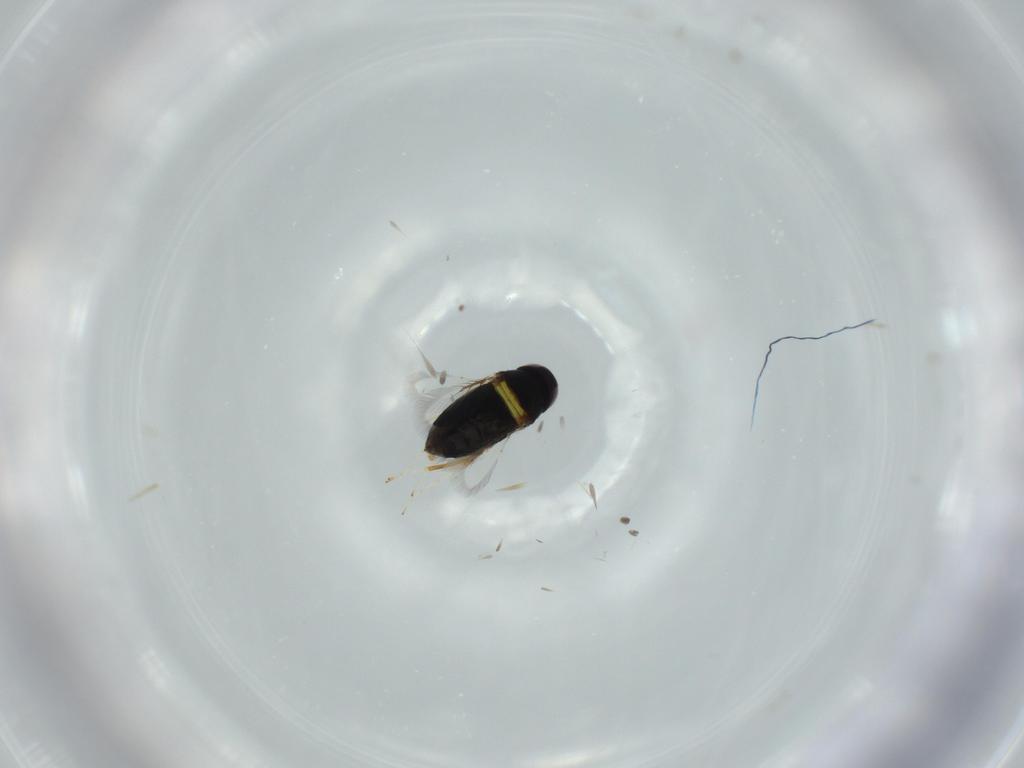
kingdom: Animalia
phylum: Arthropoda
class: Insecta
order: Hymenoptera
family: Signiphoridae
